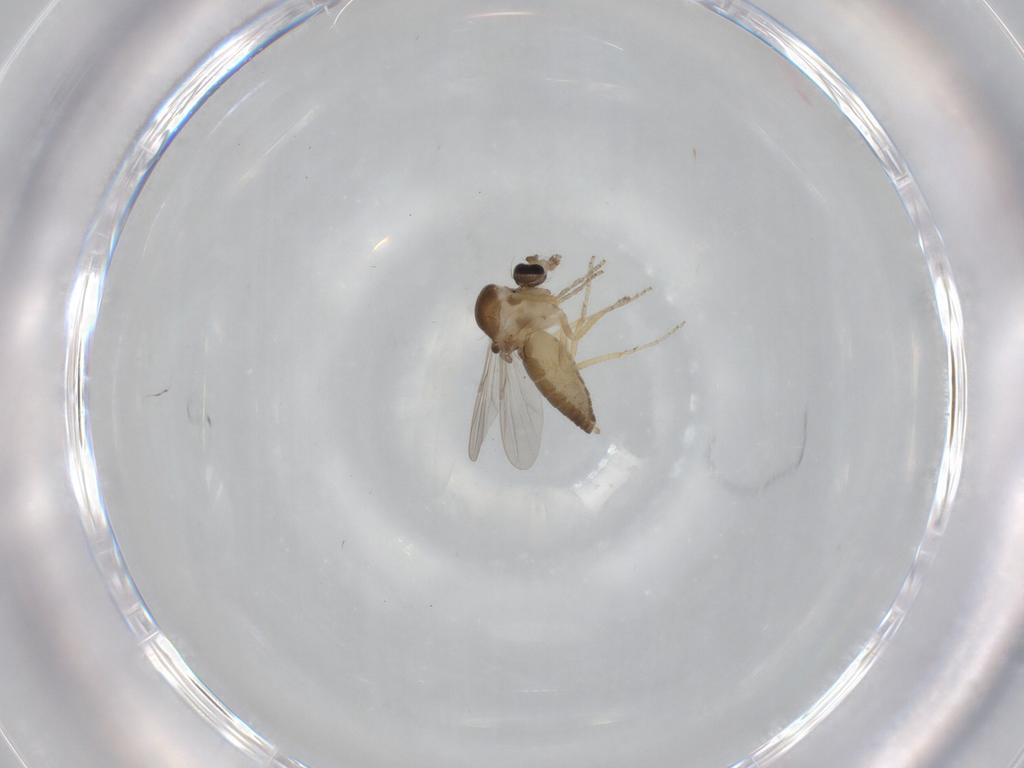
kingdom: Animalia
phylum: Arthropoda
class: Insecta
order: Diptera
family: Ceratopogonidae
